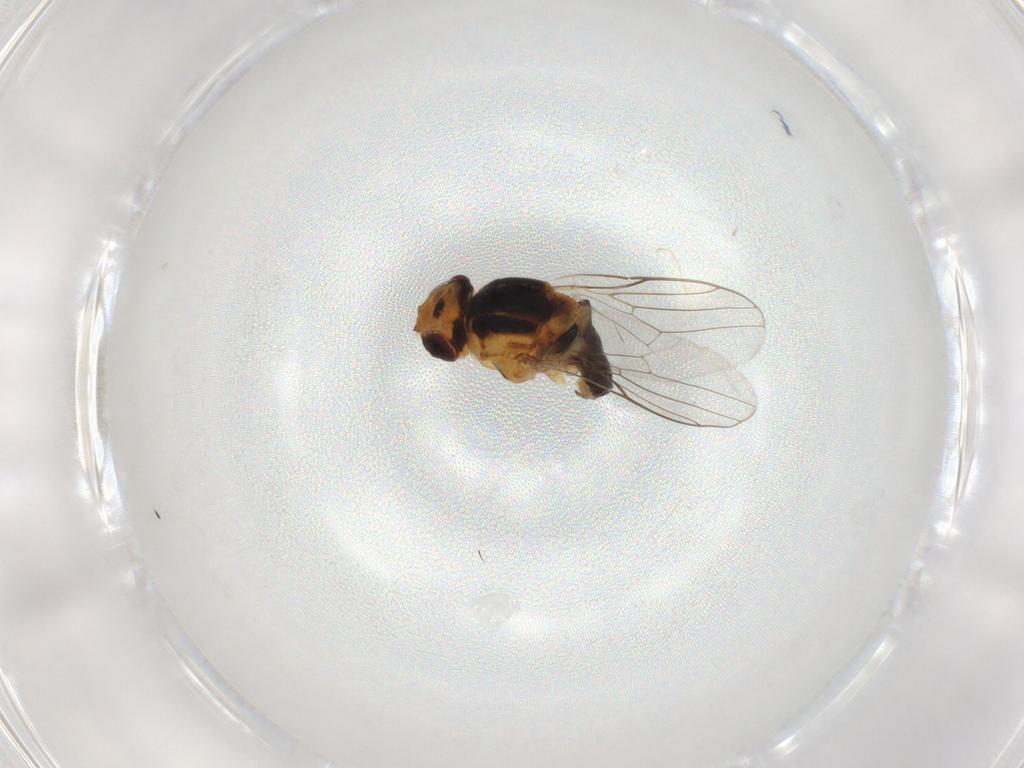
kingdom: Animalia
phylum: Arthropoda
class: Insecta
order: Diptera
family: Chloropidae
